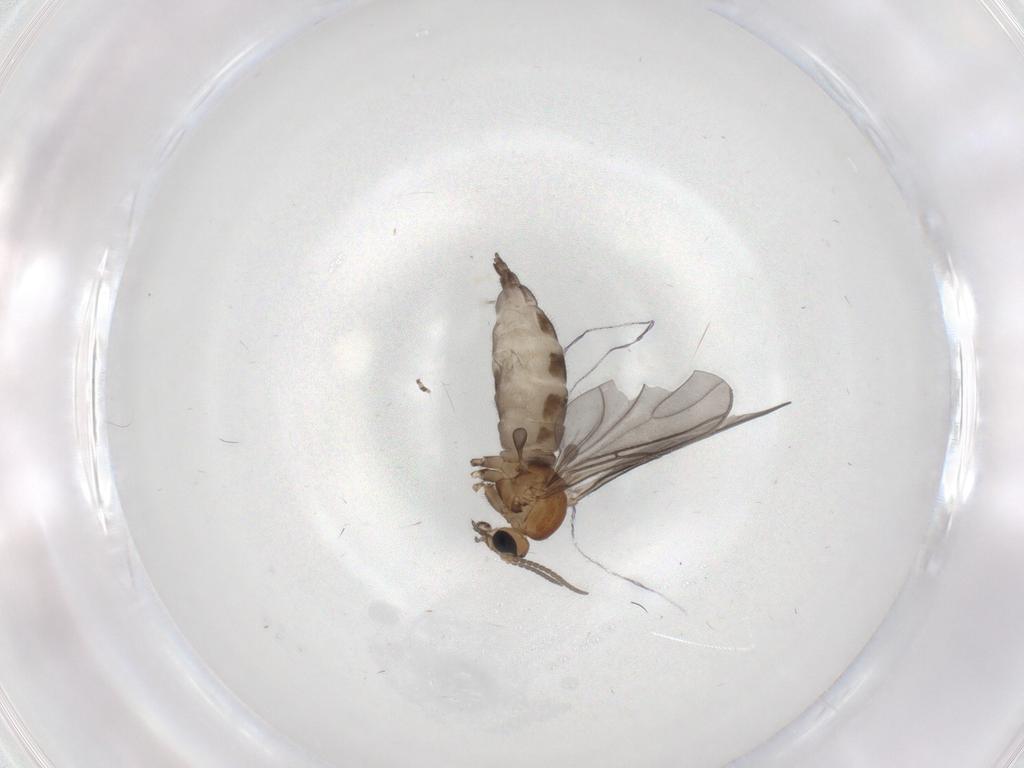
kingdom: Animalia
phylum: Arthropoda
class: Insecta
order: Diptera
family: Sciaridae
